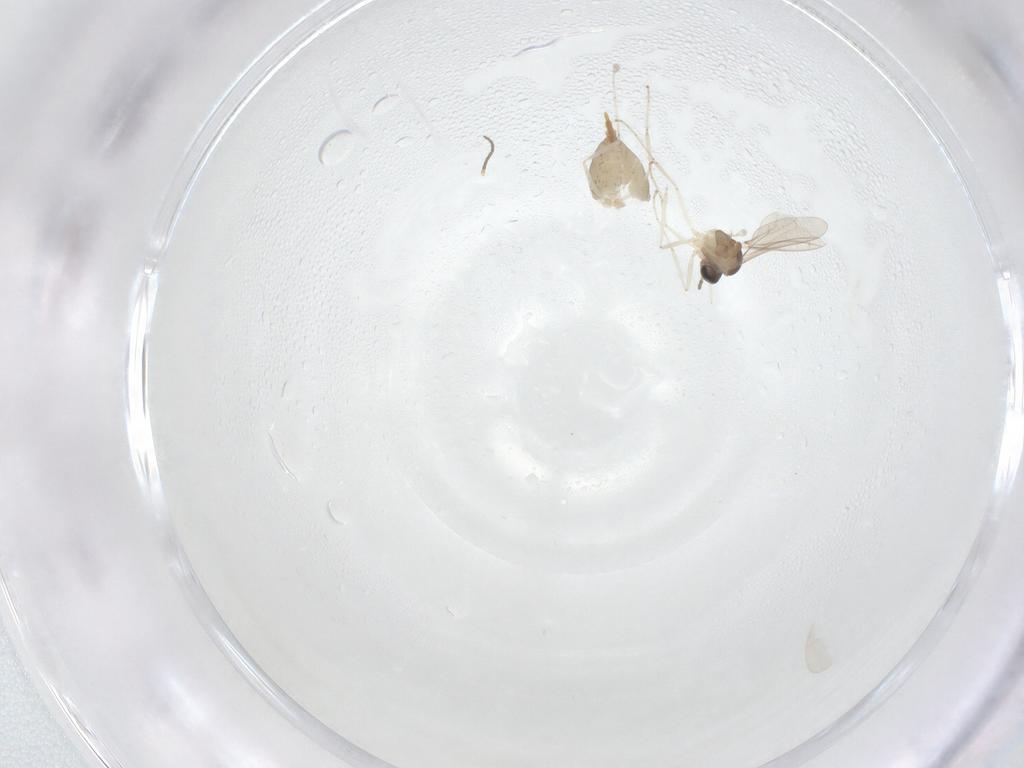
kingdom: Animalia
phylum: Arthropoda
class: Insecta
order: Diptera
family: Cecidomyiidae
